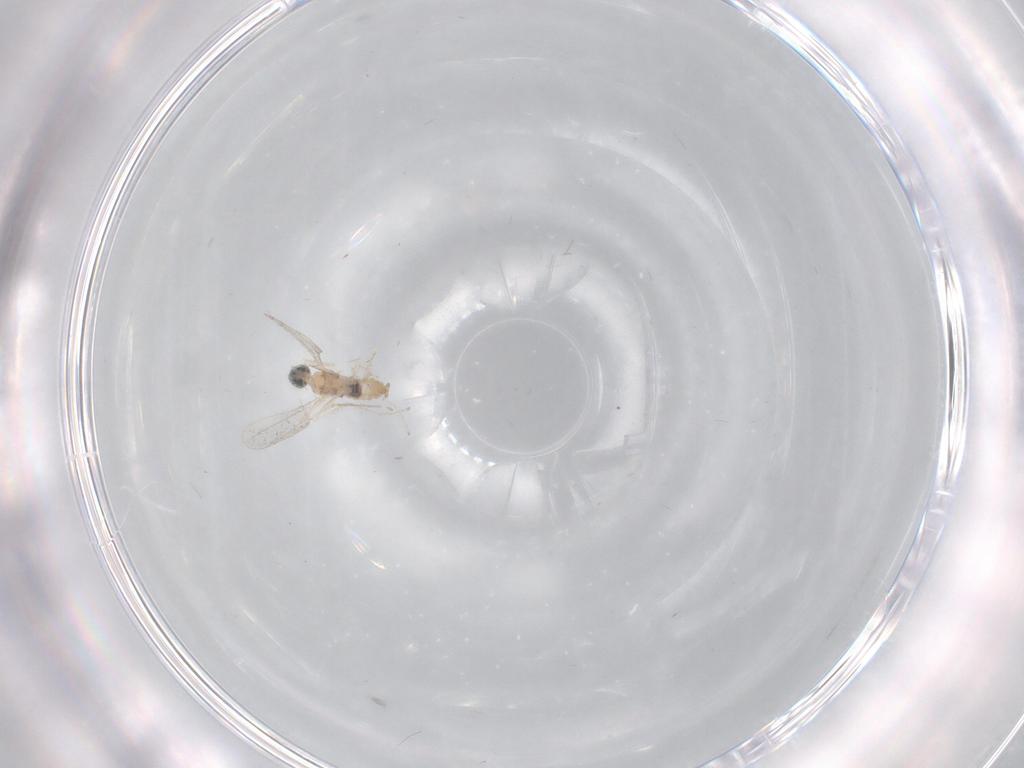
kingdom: Animalia
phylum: Arthropoda
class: Insecta
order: Diptera
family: Cecidomyiidae
